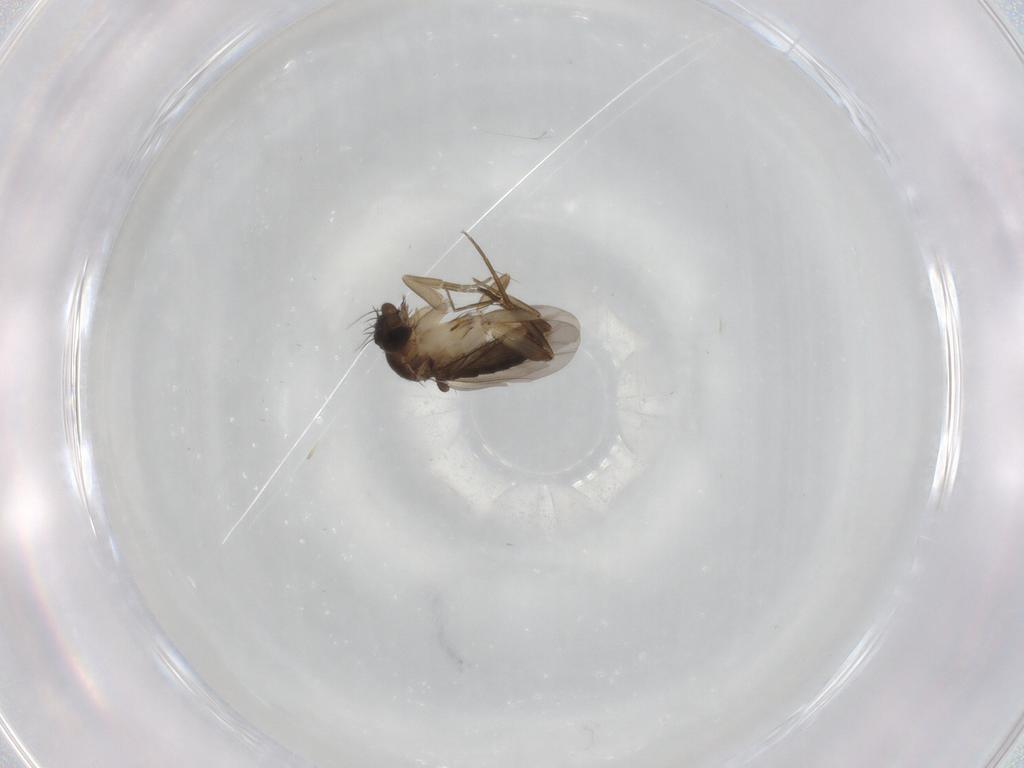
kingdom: Animalia
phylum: Arthropoda
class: Insecta
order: Diptera
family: Phoridae
